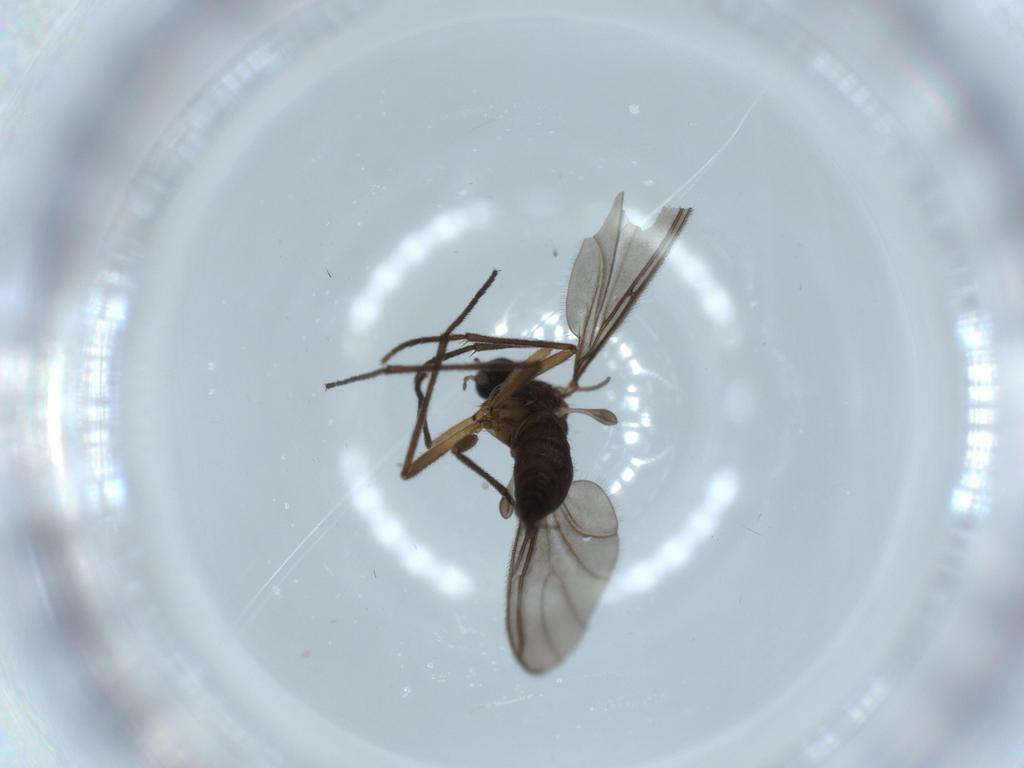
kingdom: Animalia
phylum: Arthropoda
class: Insecta
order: Diptera
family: Sciaridae
